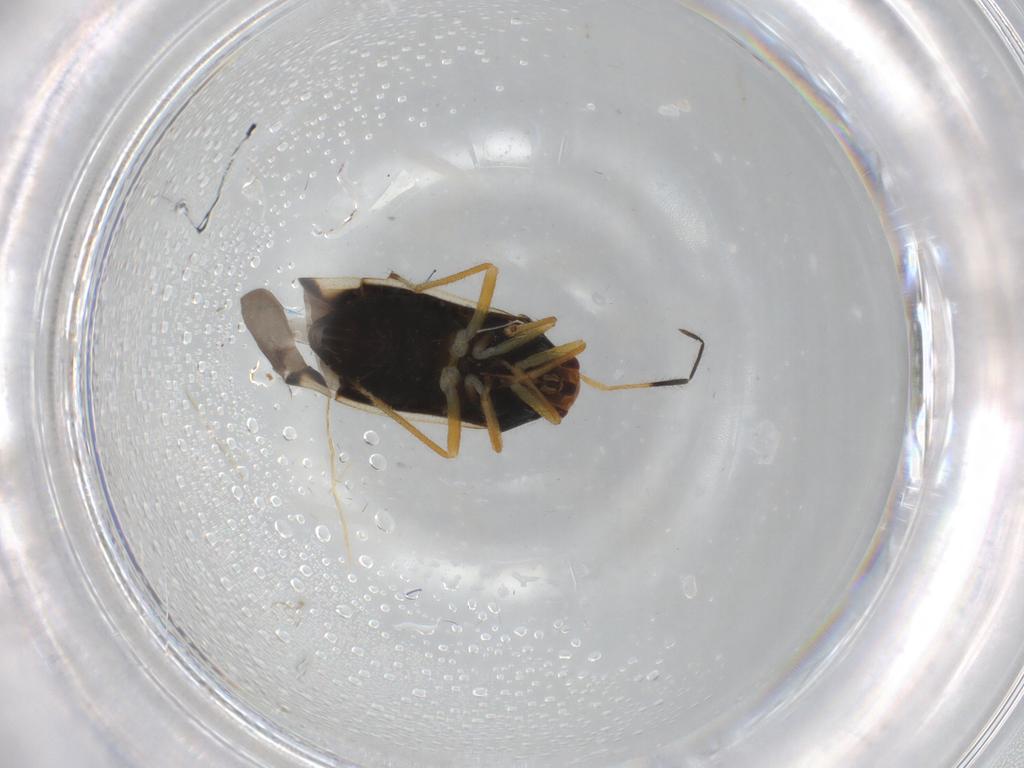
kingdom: Animalia
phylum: Arthropoda
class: Insecta
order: Hemiptera
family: Miridae
